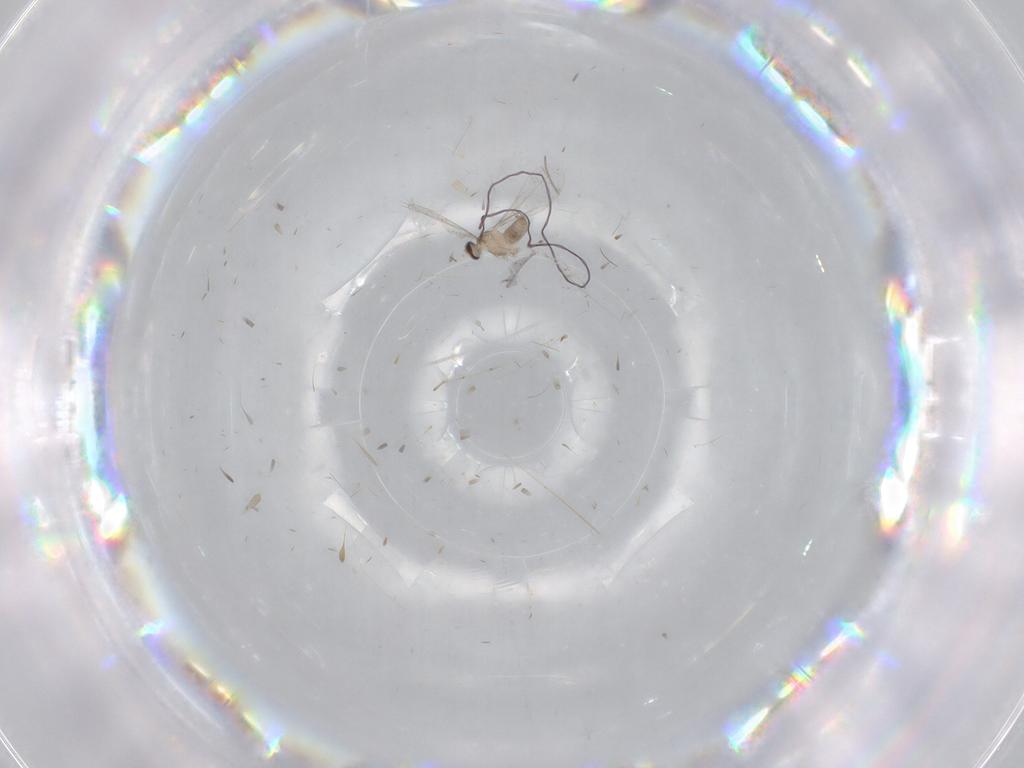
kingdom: Animalia
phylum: Arthropoda
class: Insecta
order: Diptera
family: Cecidomyiidae
